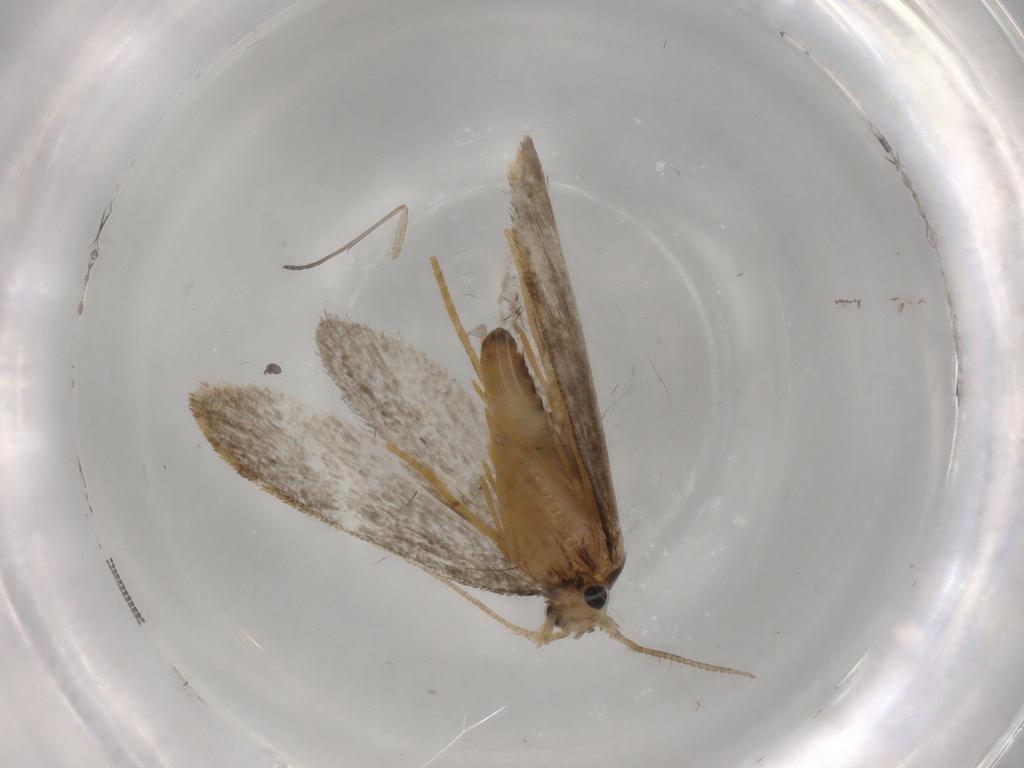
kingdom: Animalia
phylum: Arthropoda
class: Insecta
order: Lepidoptera
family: Psychidae
